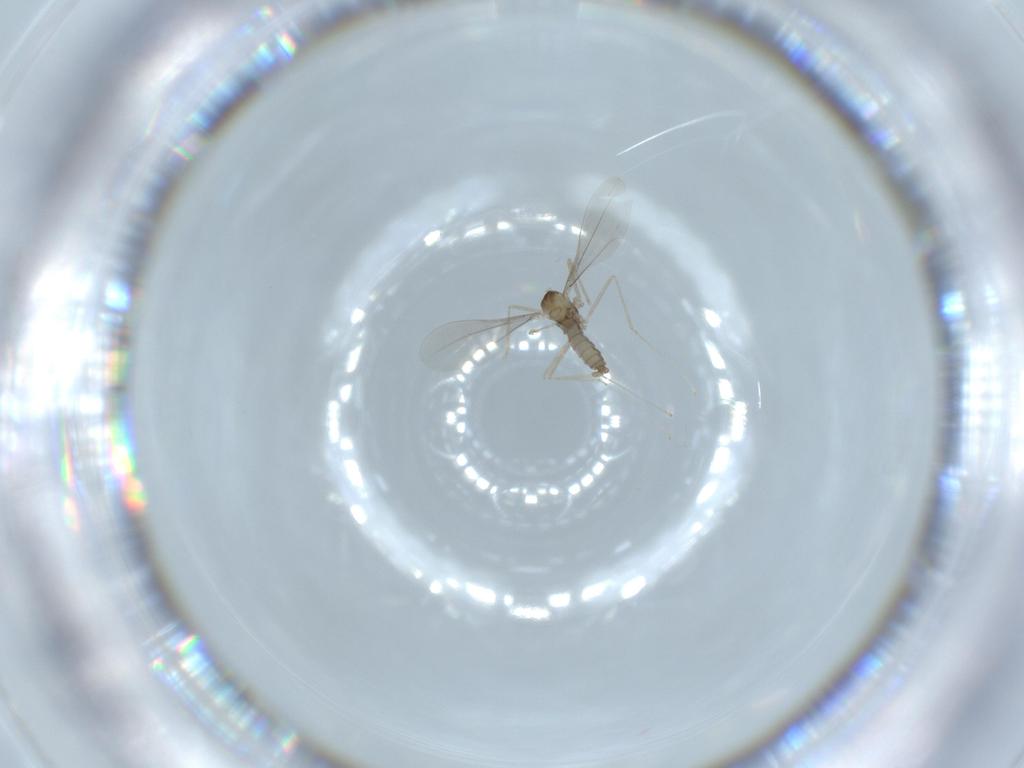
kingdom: Animalia
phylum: Arthropoda
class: Insecta
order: Diptera
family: Cecidomyiidae
